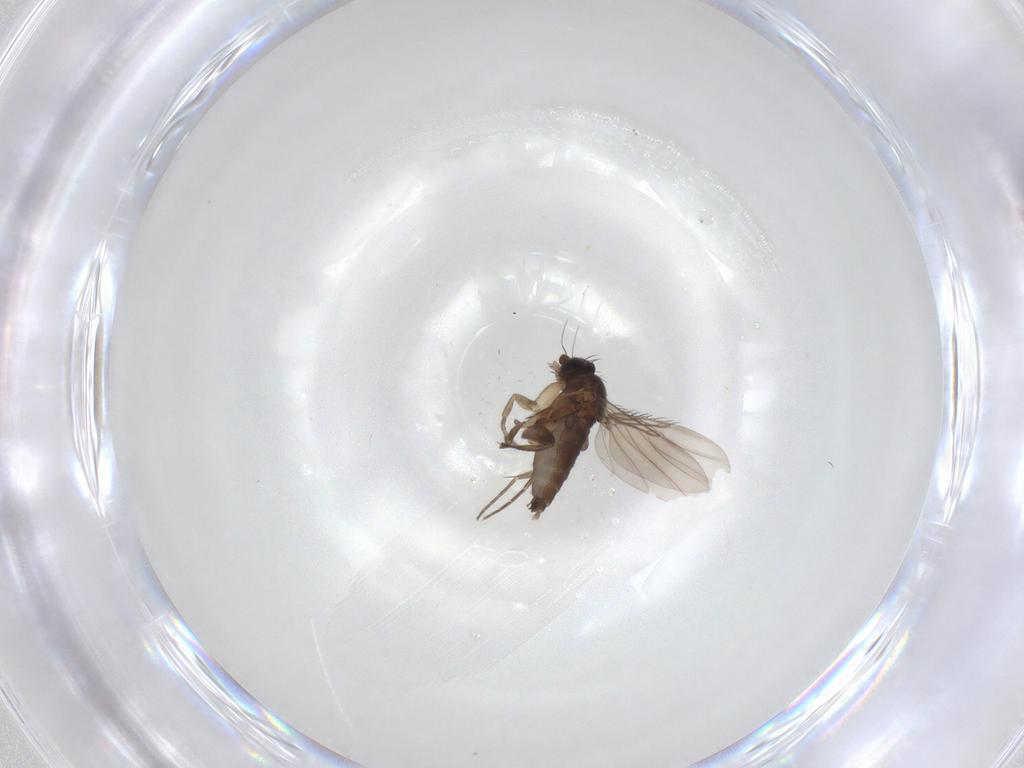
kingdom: Animalia
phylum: Arthropoda
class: Insecta
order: Diptera
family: Phoridae
